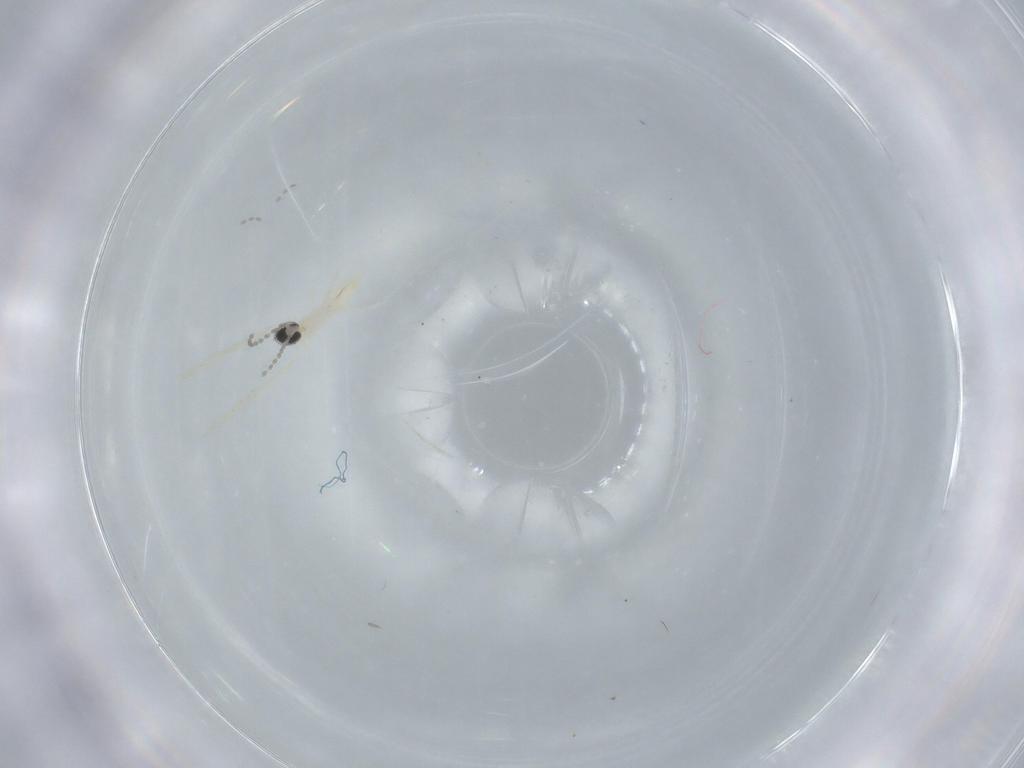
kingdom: Animalia
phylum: Arthropoda
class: Insecta
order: Diptera
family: Cecidomyiidae
